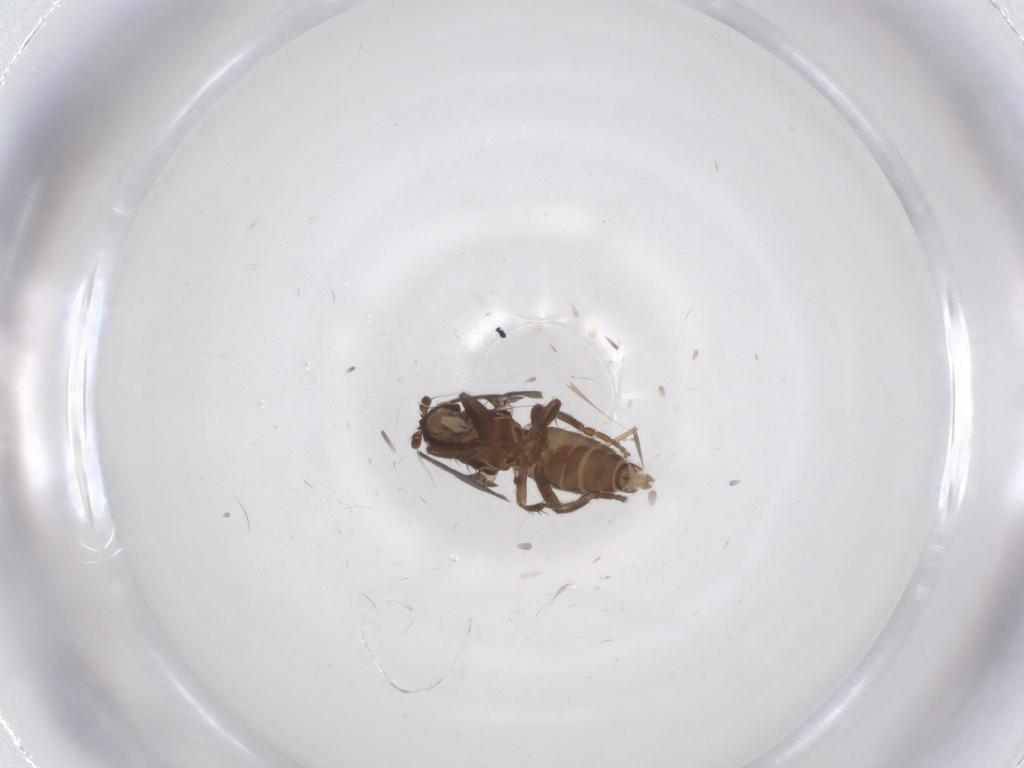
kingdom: Animalia
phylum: Arthropoda
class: Insecta
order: Diptera
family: Sphaeroceridae
